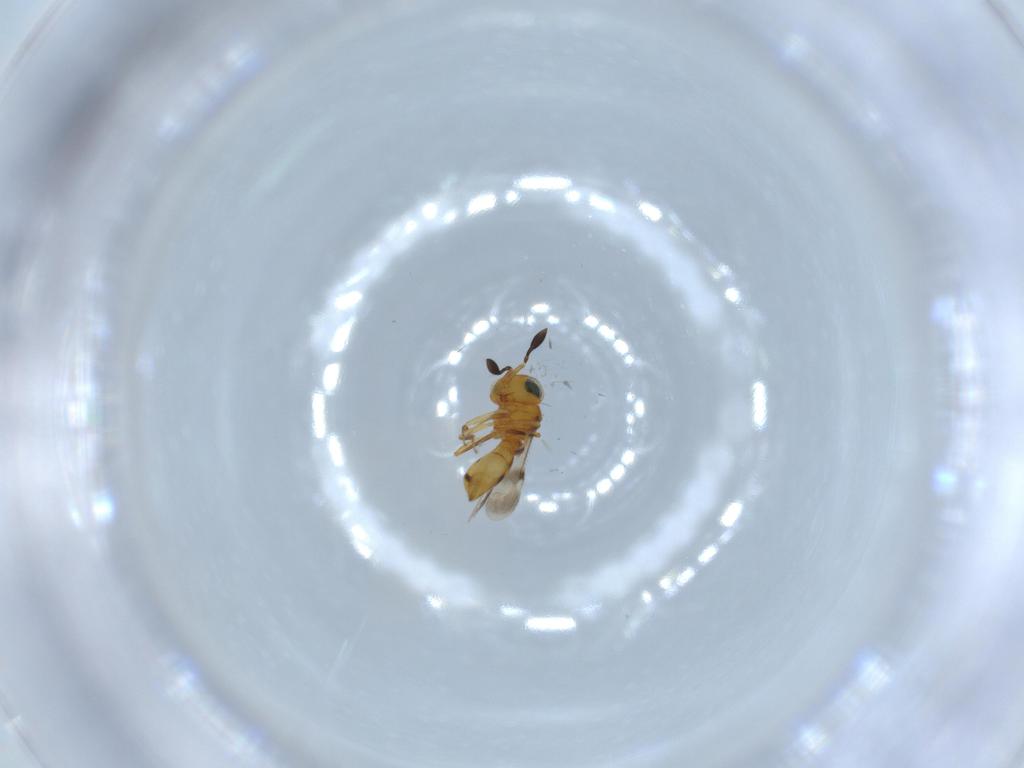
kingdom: Animalia
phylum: Arthropoda
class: Insecta
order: Hymenoptera
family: Scelionidae
